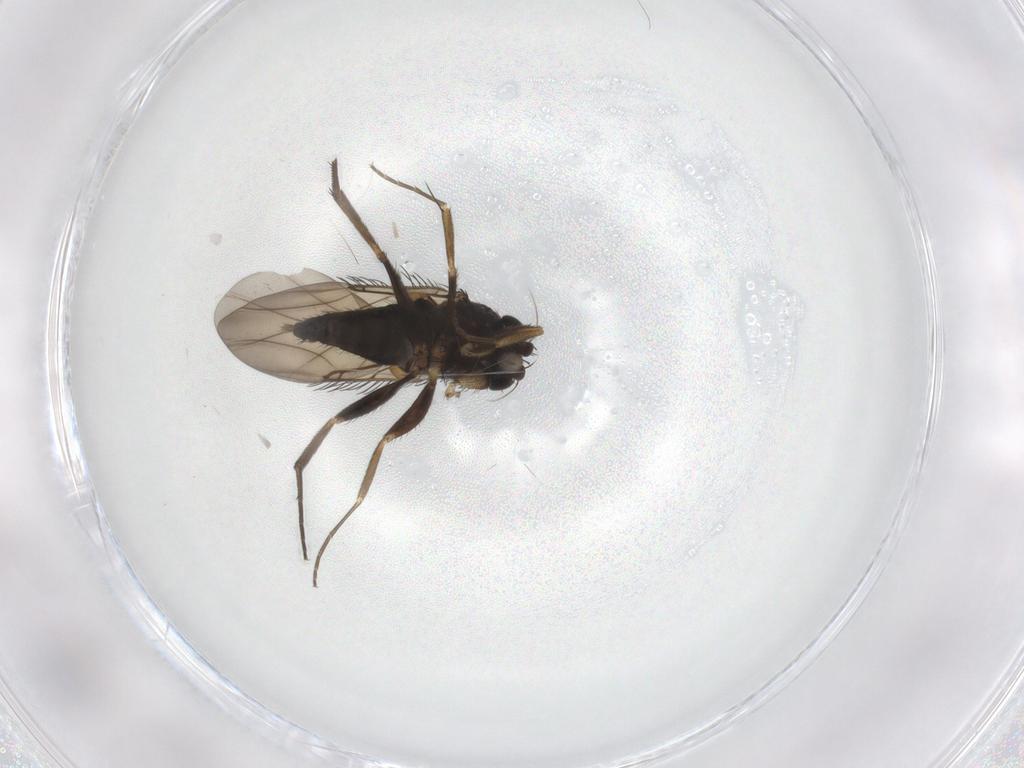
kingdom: Animalia
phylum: Arthropoda
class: Insecta
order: Diptera
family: Phoridae
